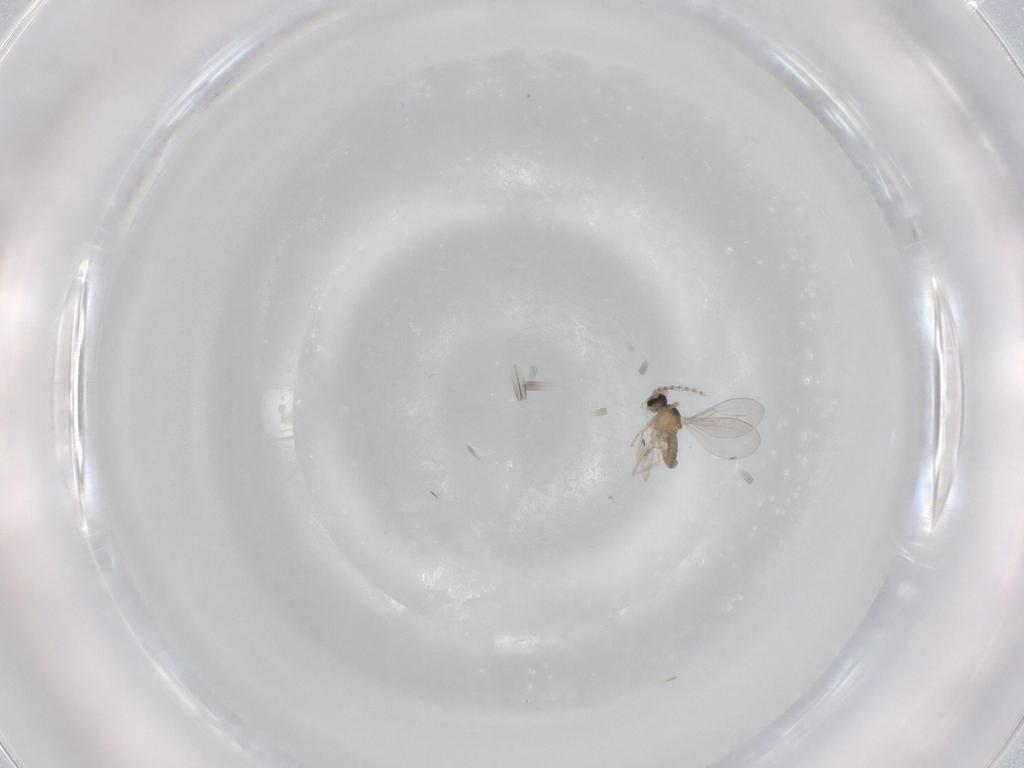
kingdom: Animalia
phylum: Arthropoda
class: Insecta
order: Diptera
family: Cecidomyiidae
